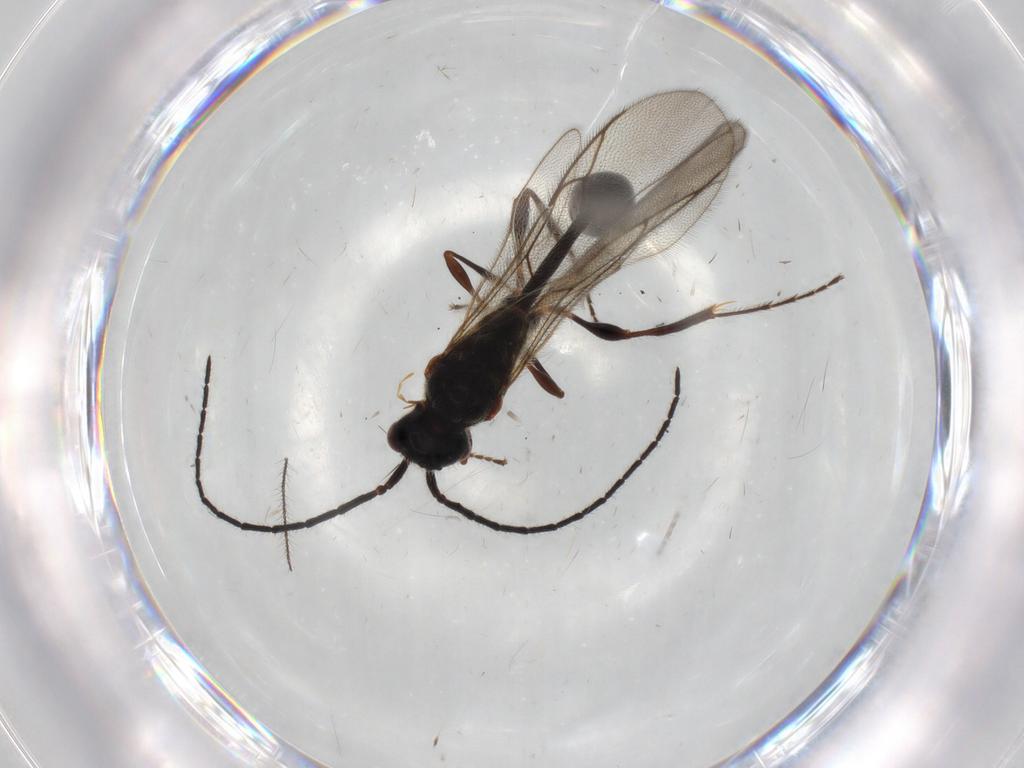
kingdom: Animalia
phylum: Arthropoda
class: Insecta
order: Hymenoptera
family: Diapriidae
